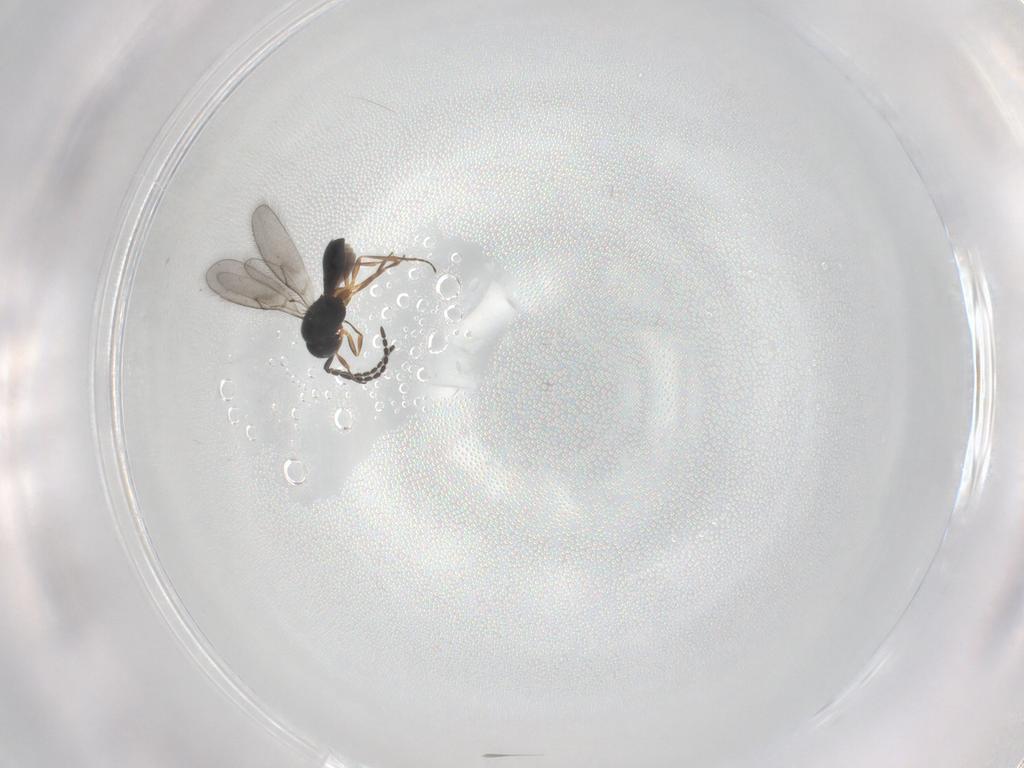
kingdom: Animalia
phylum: Arthropoda
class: Insecta
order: Hymenoptera
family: Scelionidae
